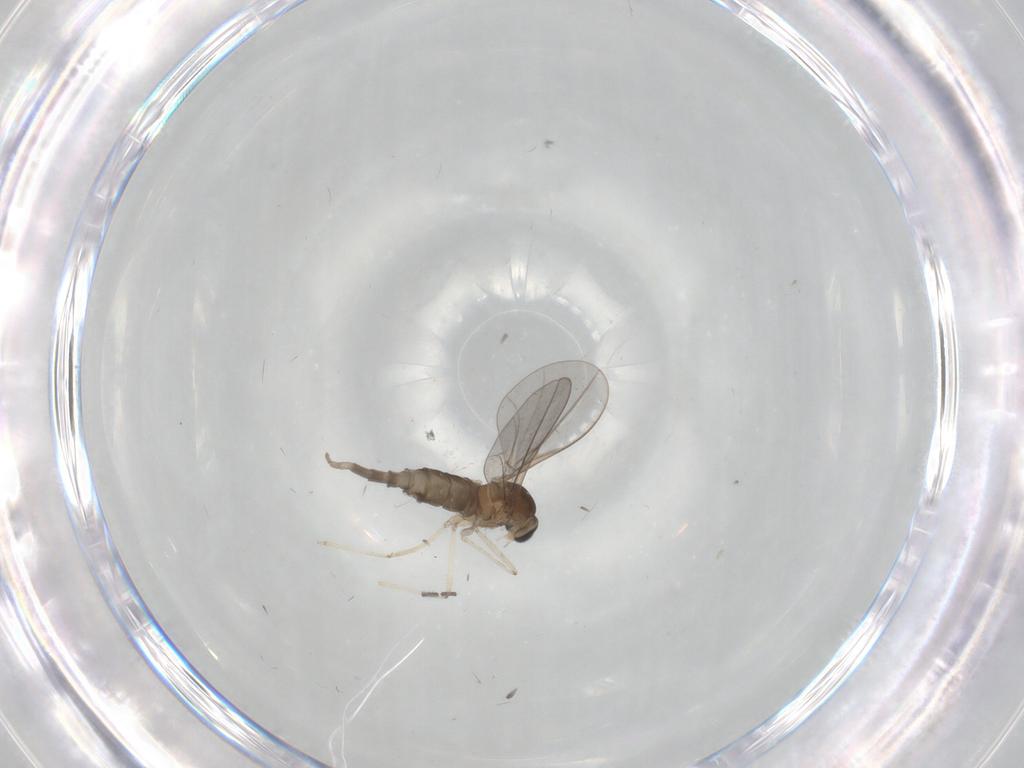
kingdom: Animalia
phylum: Arthropoda
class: Insecta
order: Diptera
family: Cecidomyiidae
